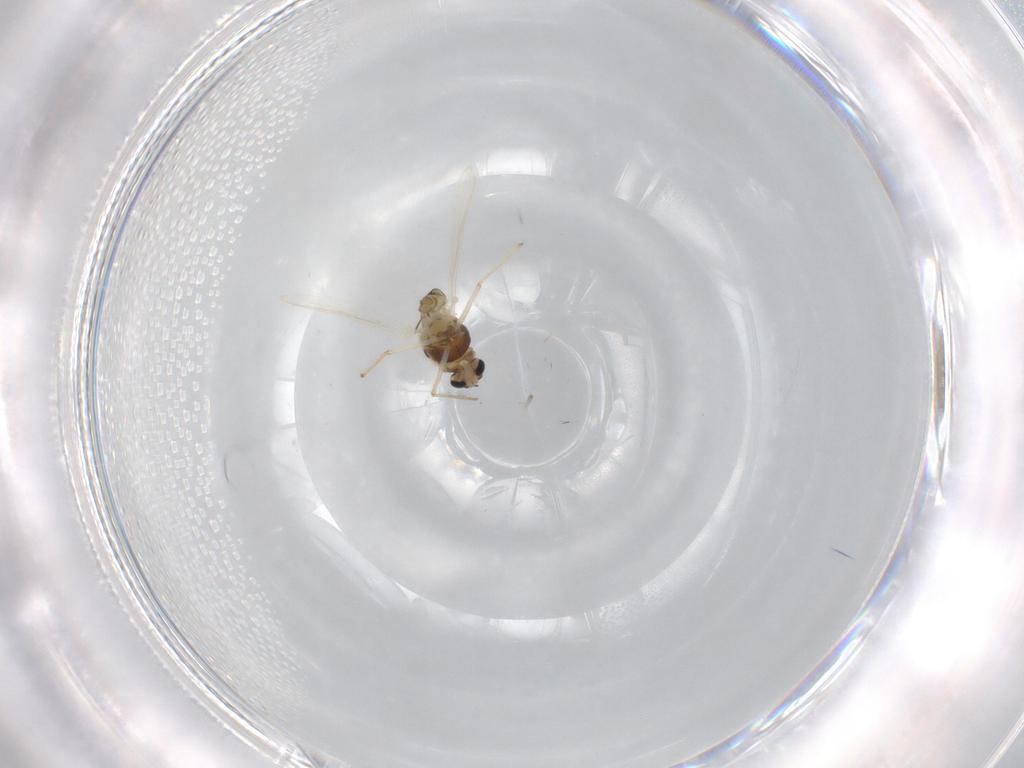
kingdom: Animalia
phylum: Arthropoda
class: Insecta
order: Diptera
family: Chironomidae
